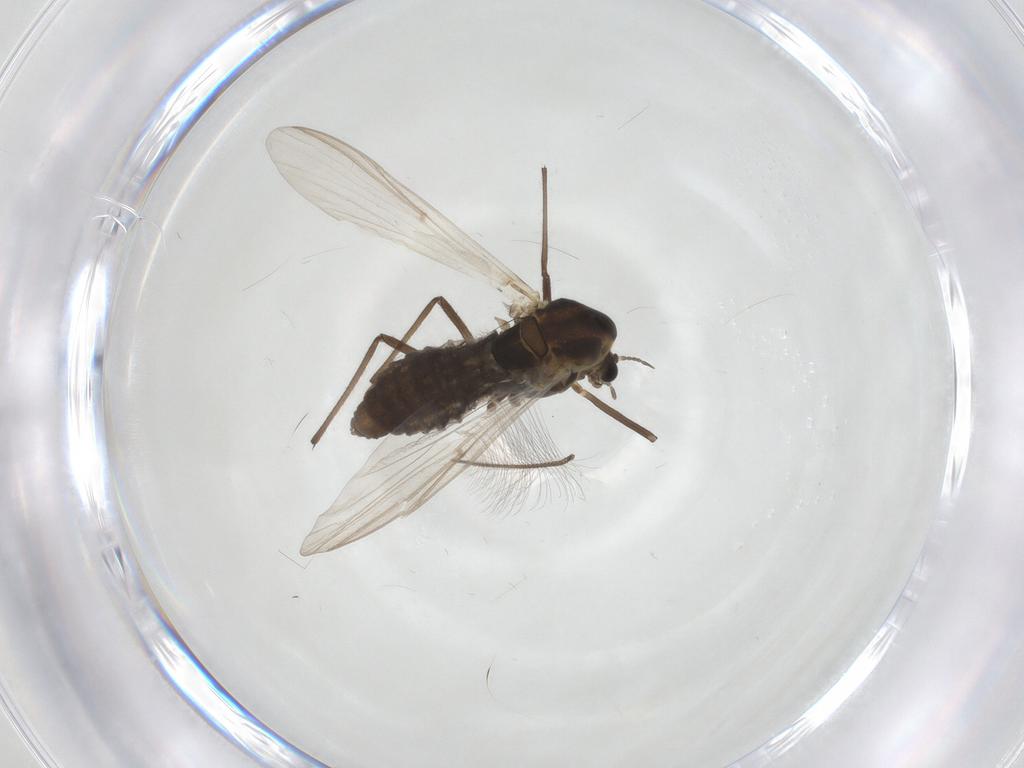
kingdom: Animalia
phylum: Arthropoda
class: Insecta
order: Diptera
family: Chironomidae
